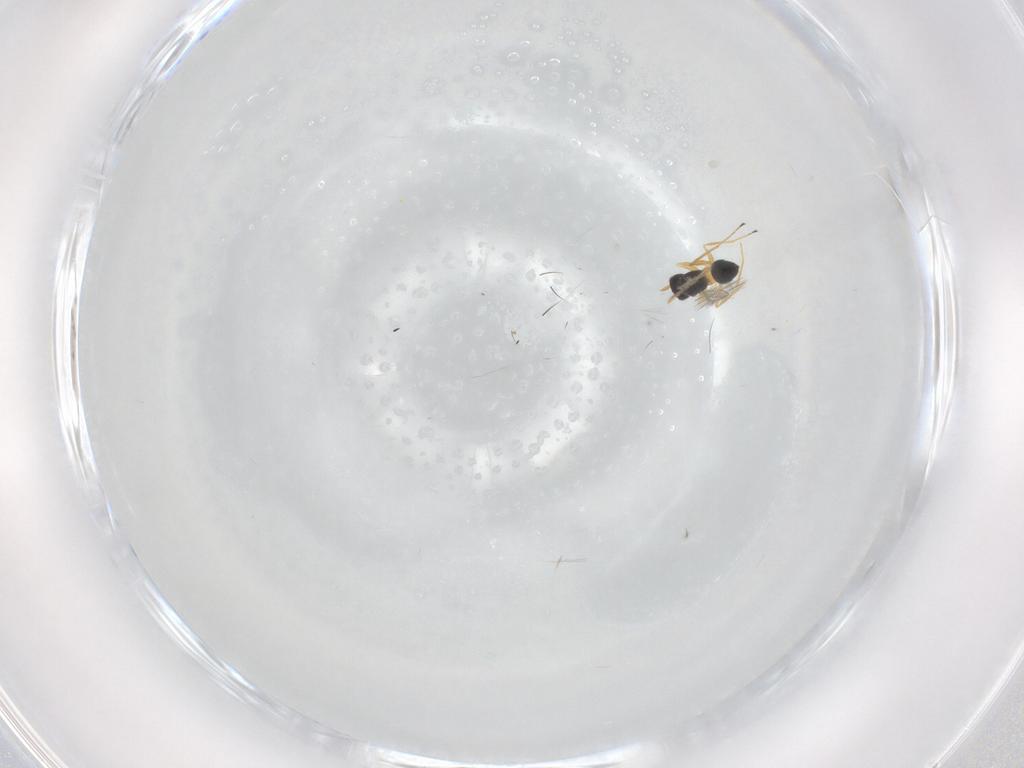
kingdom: Animalia
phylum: Arthropoda
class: Insecta
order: Hymenoptera
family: Mymaridae
